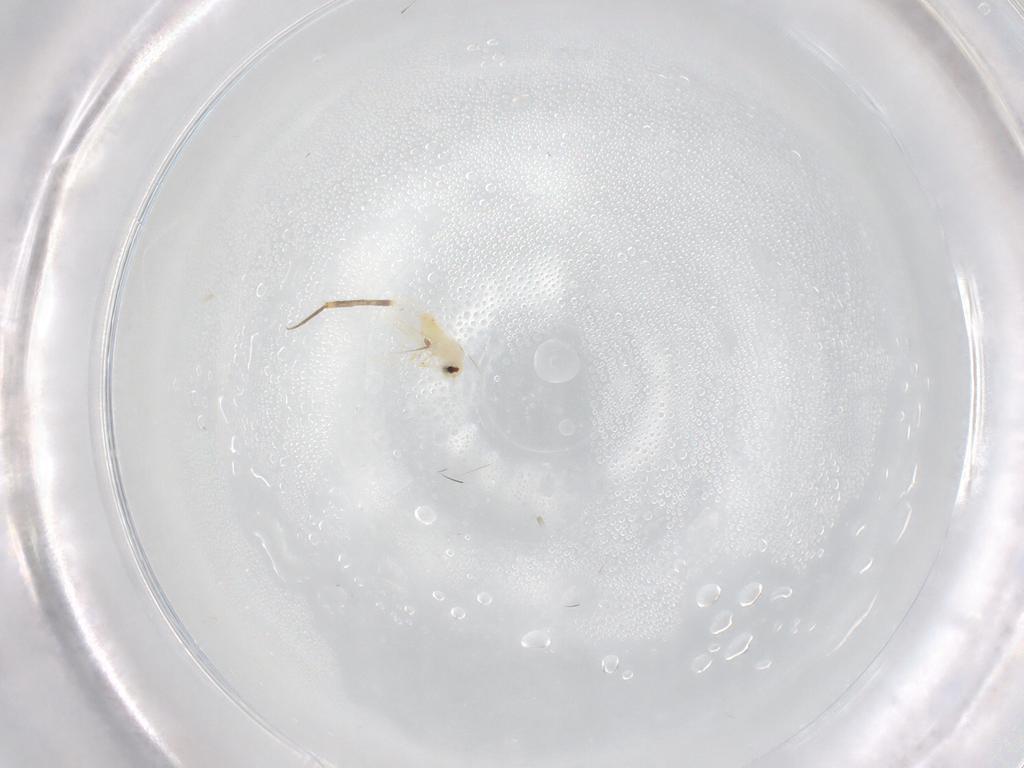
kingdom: Animalia
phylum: Arthropoda
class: Insecta
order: Hemiptera
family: Aleyrodidae
